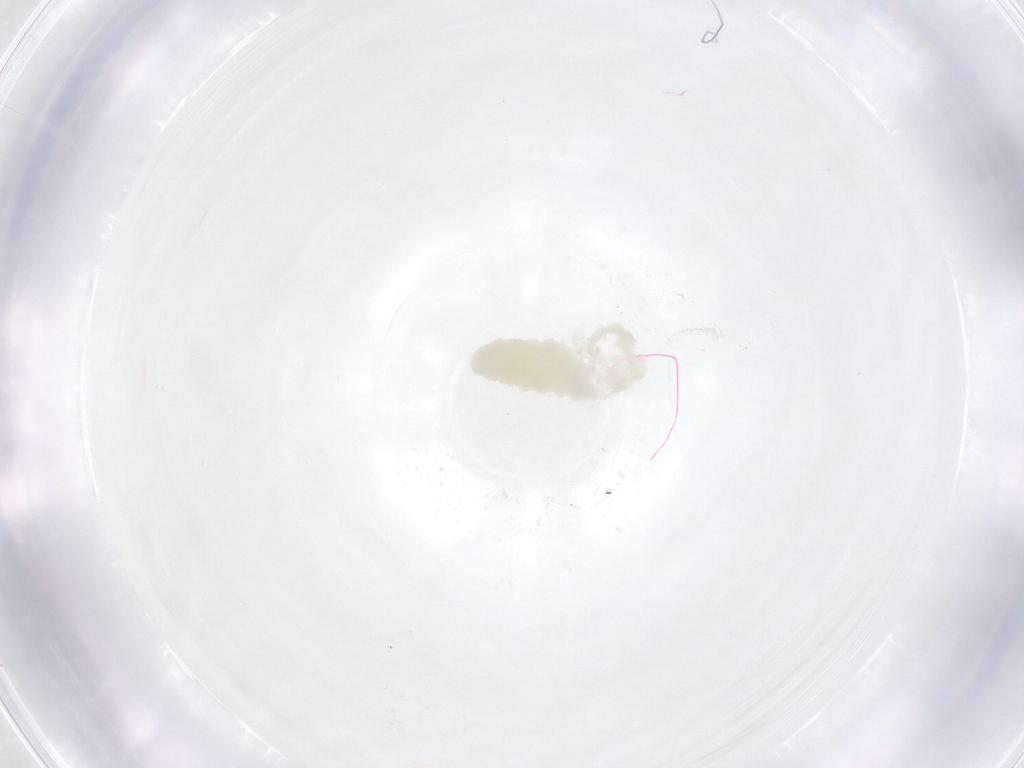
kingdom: Animalia
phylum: Arthropoda
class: Insecta
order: Diptera
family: Fergusoninidae
